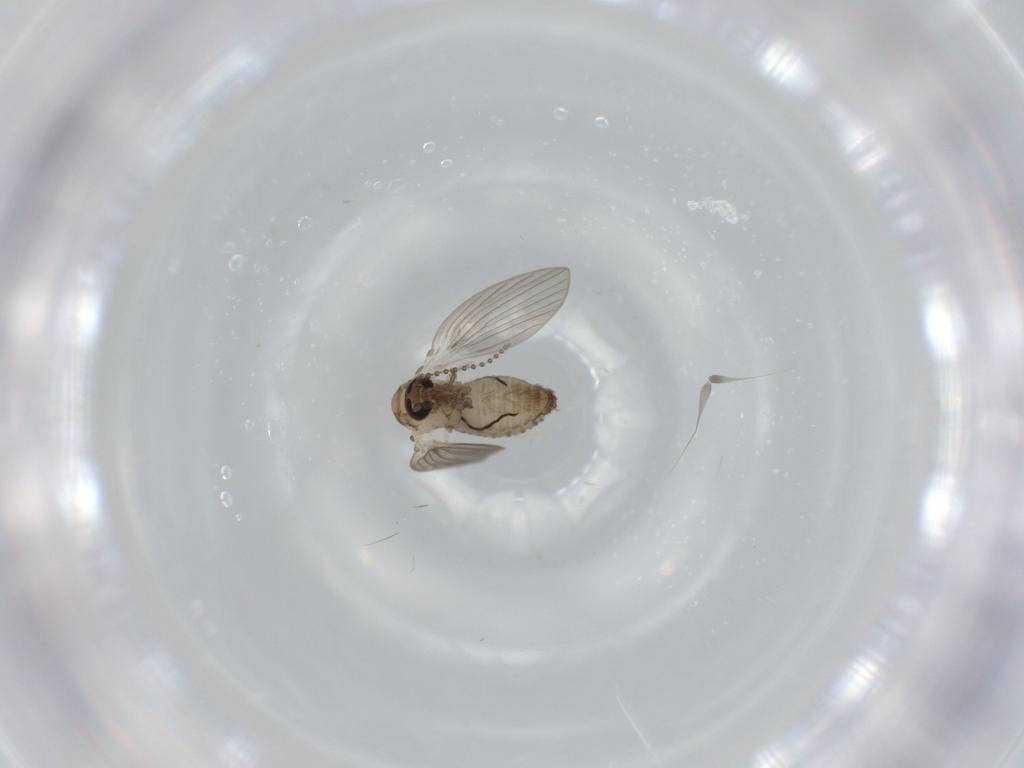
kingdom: Animalia
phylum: Arthropoda
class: Insecta
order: Diptera
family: Psychodidae
